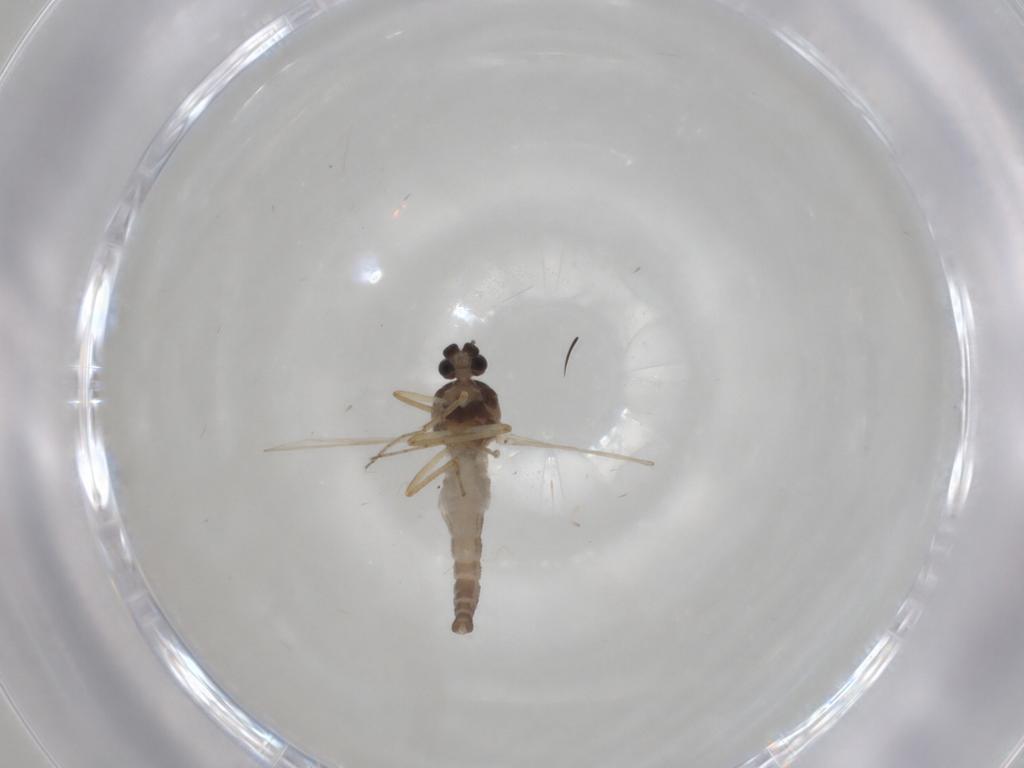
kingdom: Animalia
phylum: Arthropoda
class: Insecta
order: Diptera
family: Ceratopogonidae
